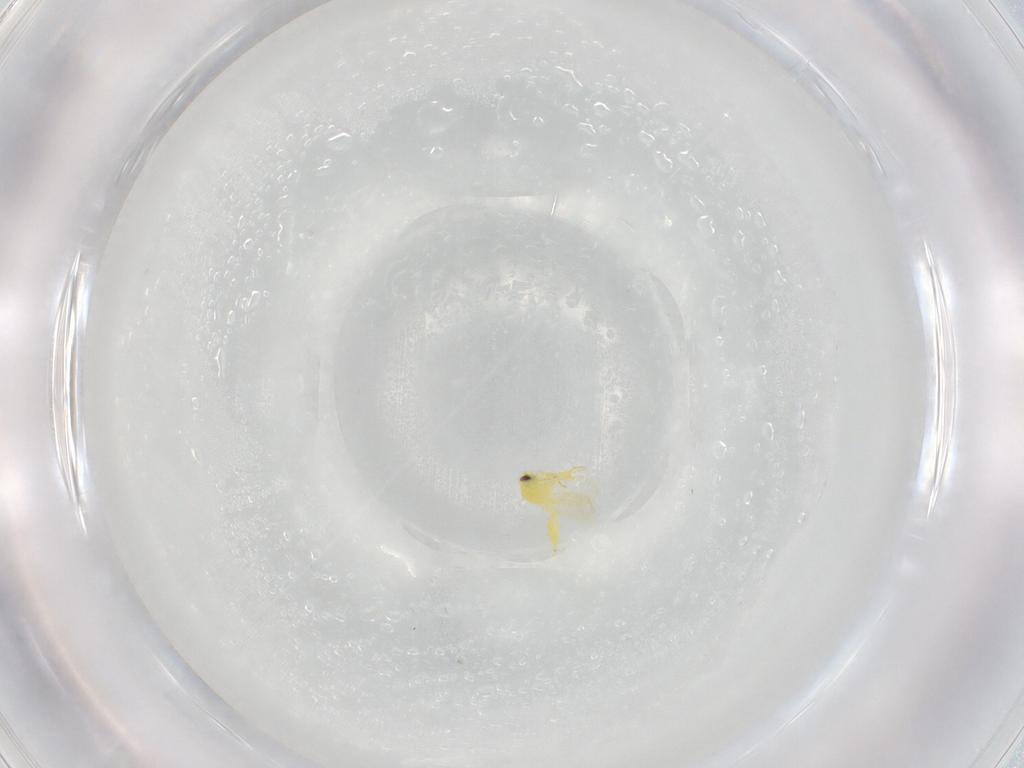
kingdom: Animalia
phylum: Arthropoda
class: Insecta
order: Hemiptera
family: Aleyrodidae
